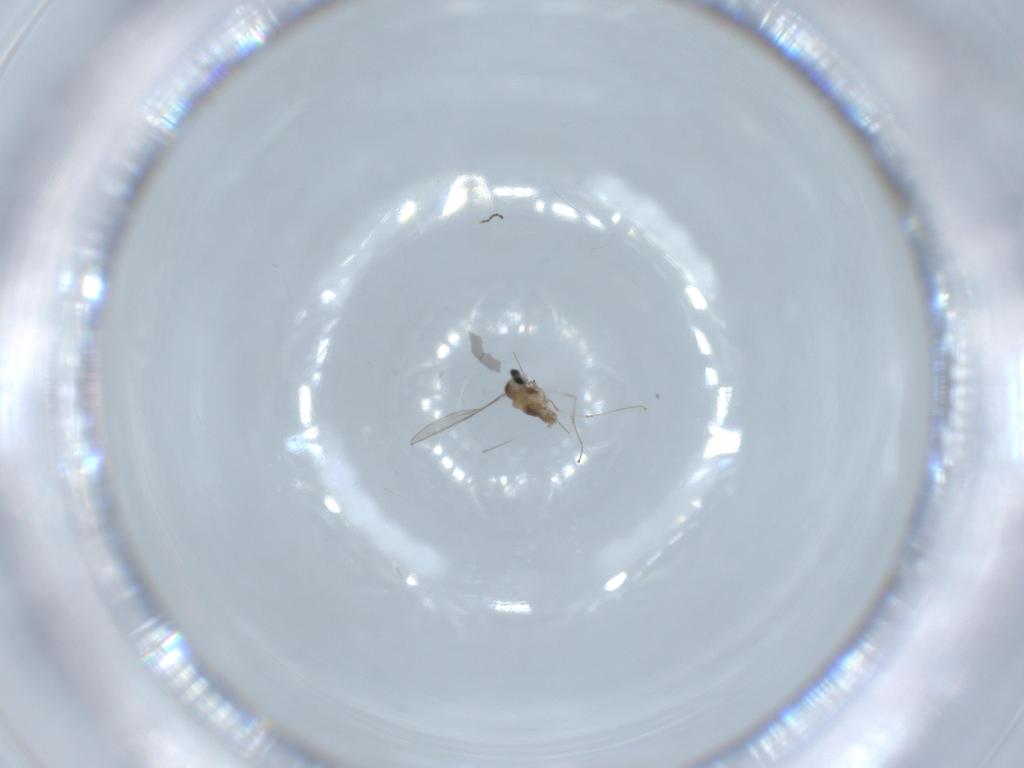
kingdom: Animalia
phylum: Arthropoda
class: Insecta
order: Diptera
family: Cecidomyiidae
